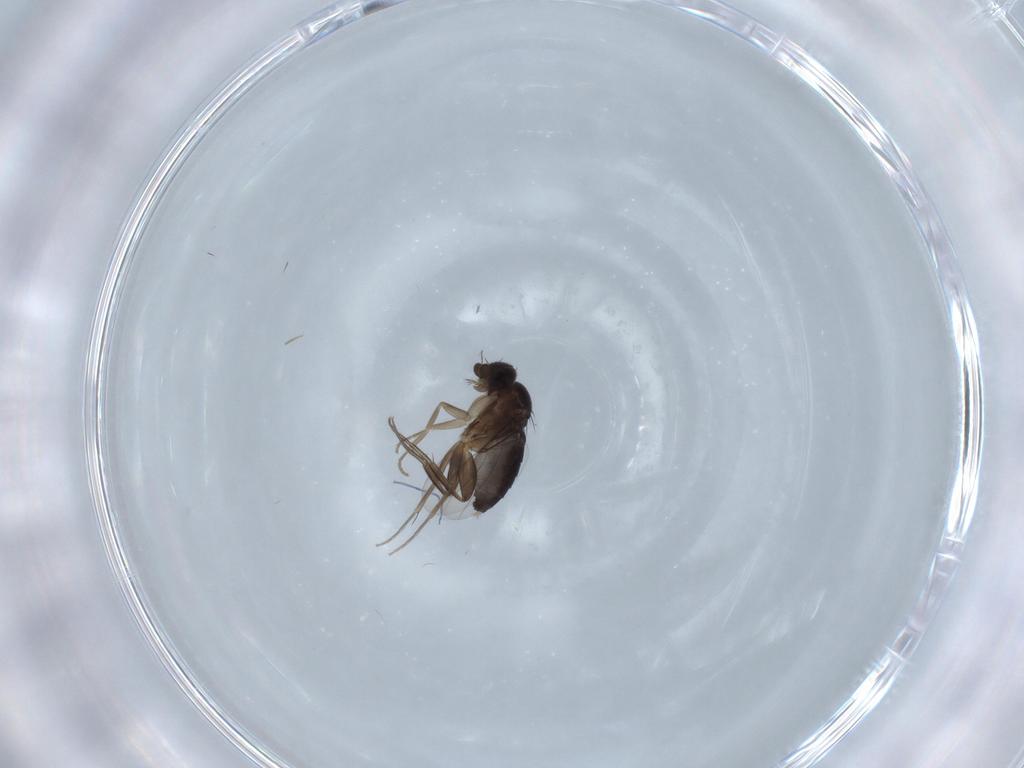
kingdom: Animalia
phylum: Arthropoda
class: Insecta
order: Diptera
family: Phoridae
